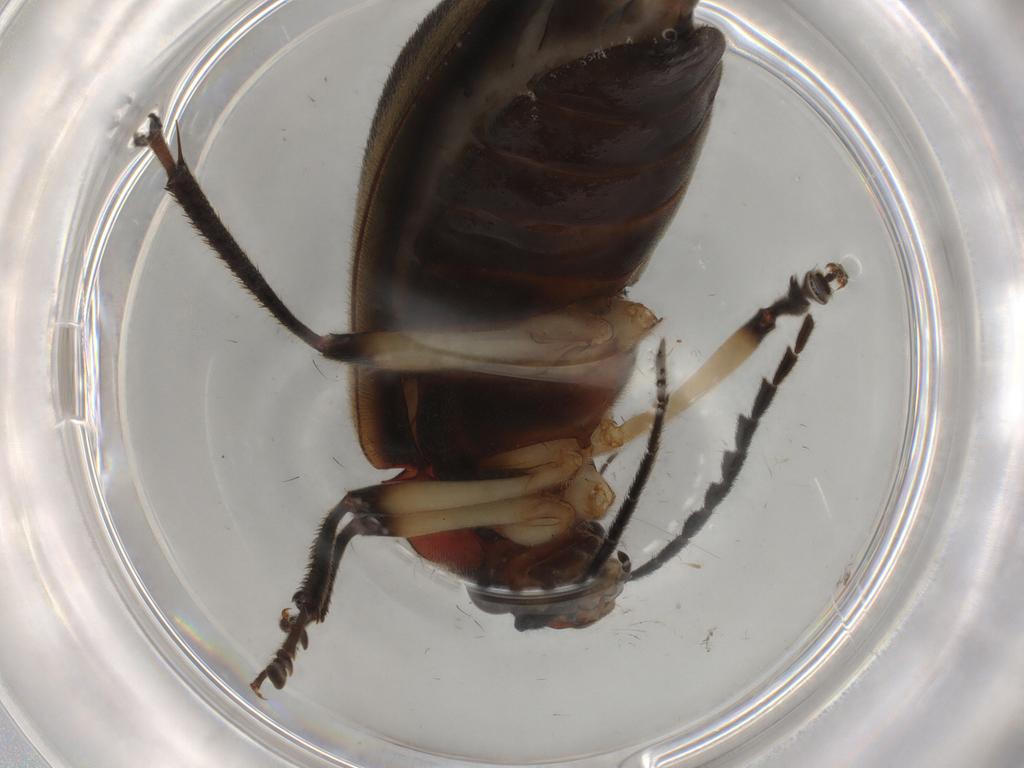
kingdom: Animalia
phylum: Arthropoda
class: Insecta
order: Coleoptera
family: Ptilodactylidae
